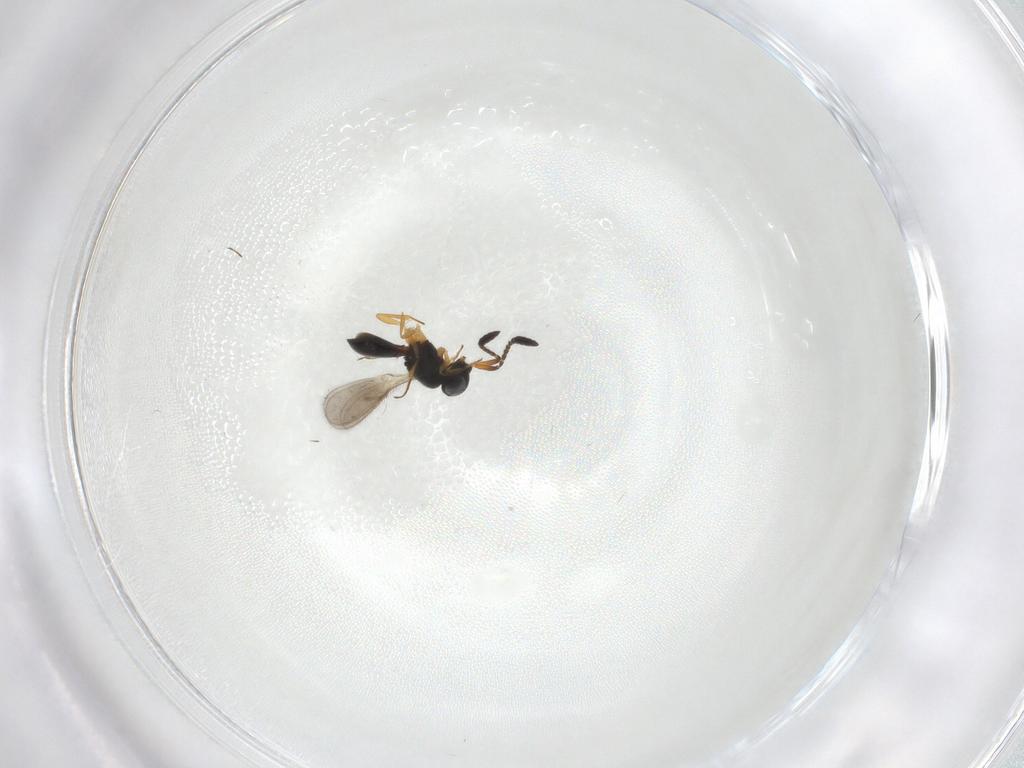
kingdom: Animalia
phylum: Arthropoda
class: Insecta
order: Hymenoptera
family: Scelionidae
